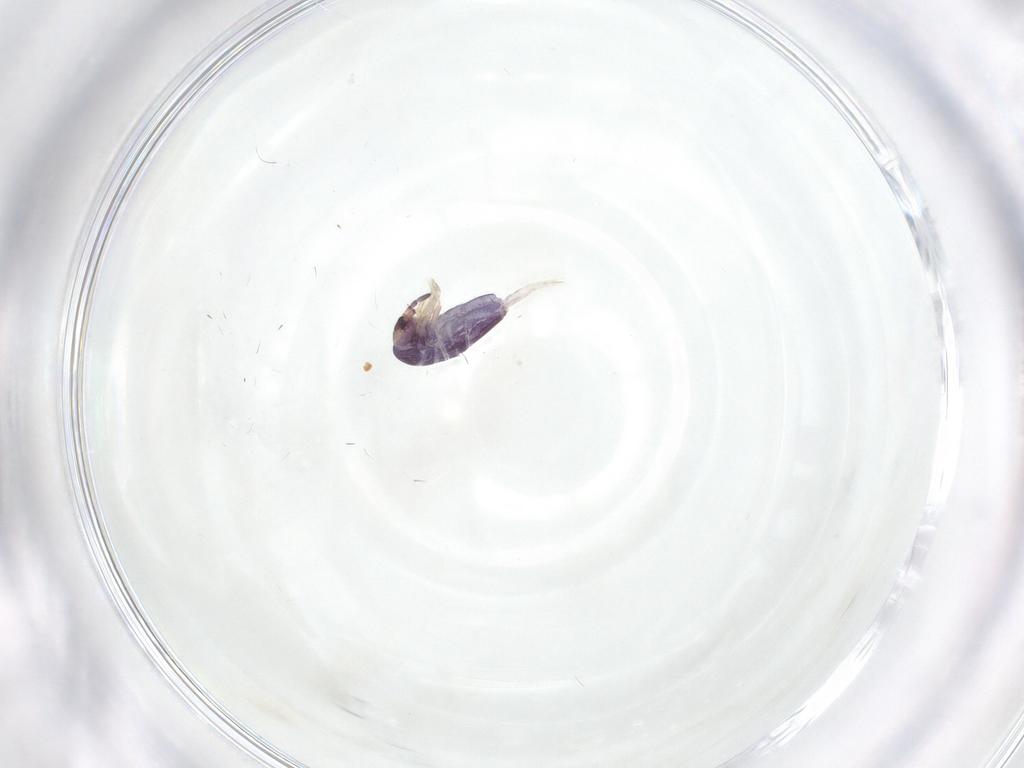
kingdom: Animalia
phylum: Arthropoda
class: Collembola
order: Entomobryomorpha
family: Entomobryidae
